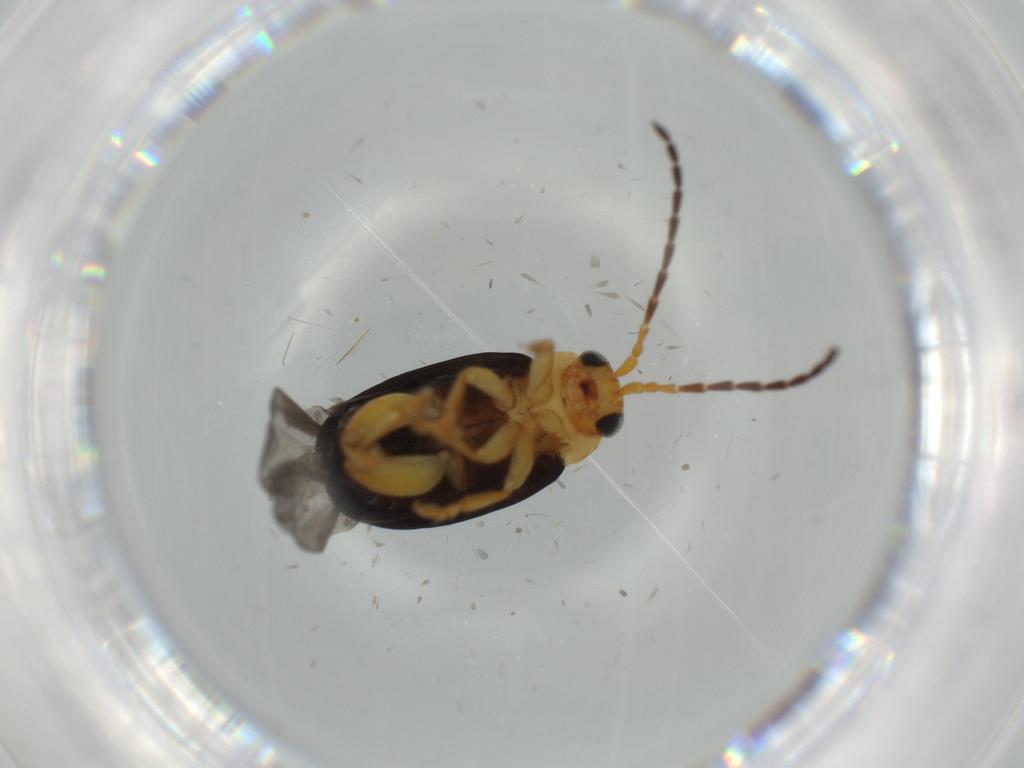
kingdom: Animalia
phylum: Arthropoda
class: Insecta
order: Coleoptera
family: Chrysomelidae
